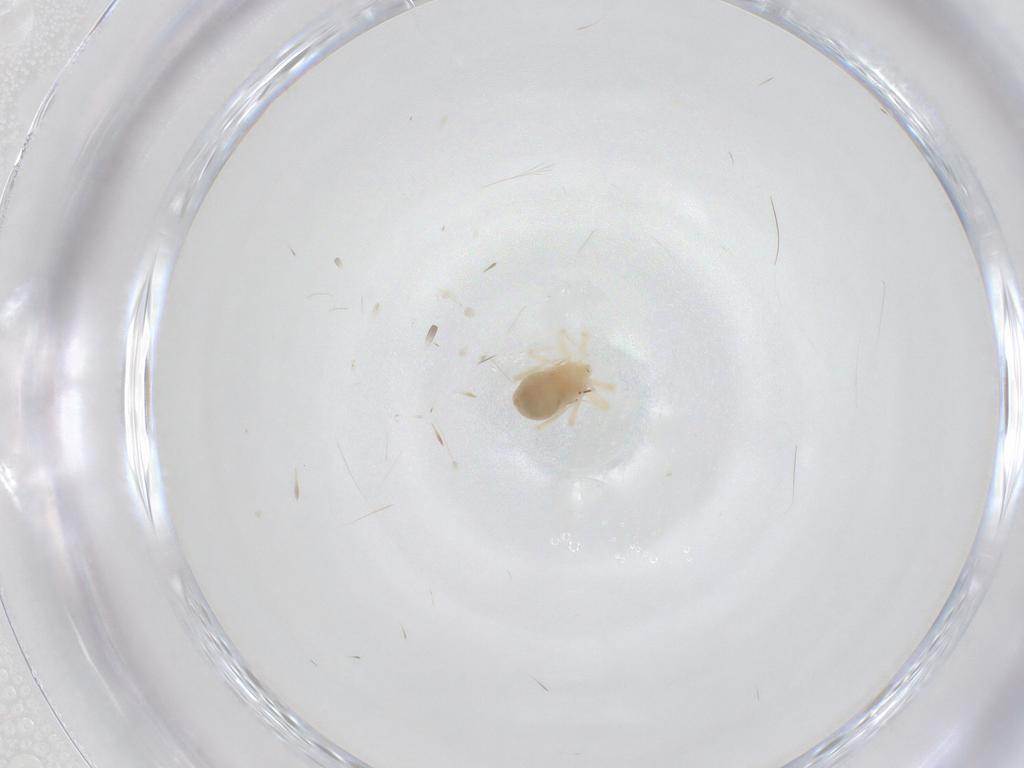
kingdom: Animalia
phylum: Arthropoda
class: Arachnida
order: Trombidiformes
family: Anystidae
